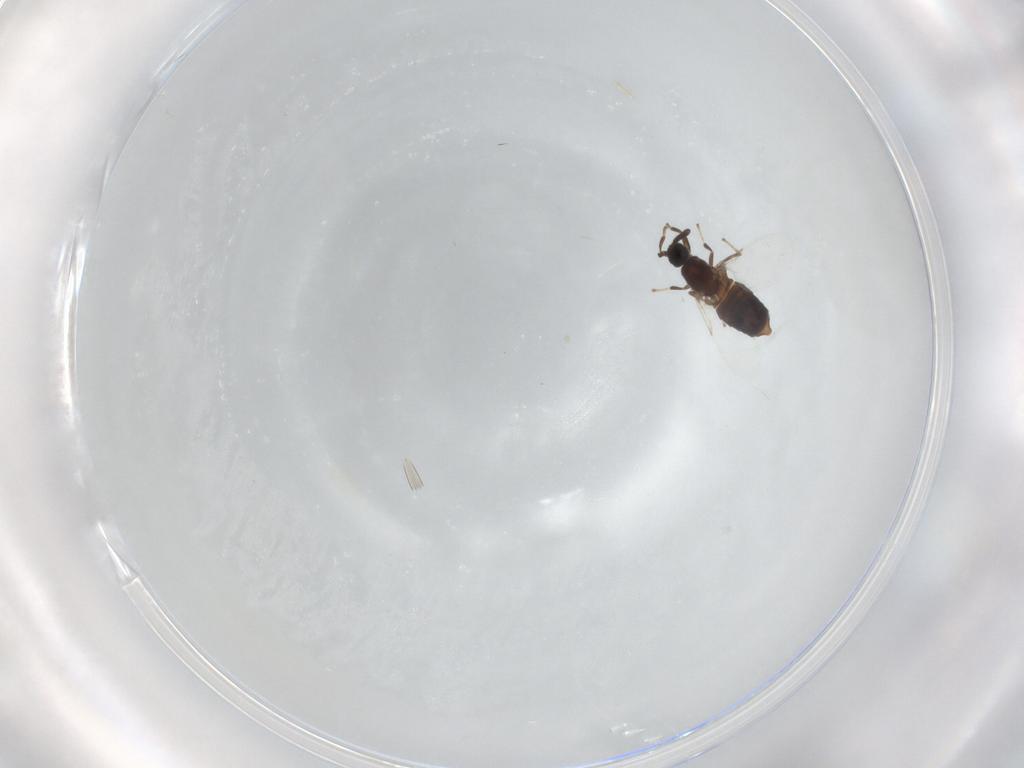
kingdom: Animalia
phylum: Arthropoda
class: Insecta
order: Diptera
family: Scatopsidae
